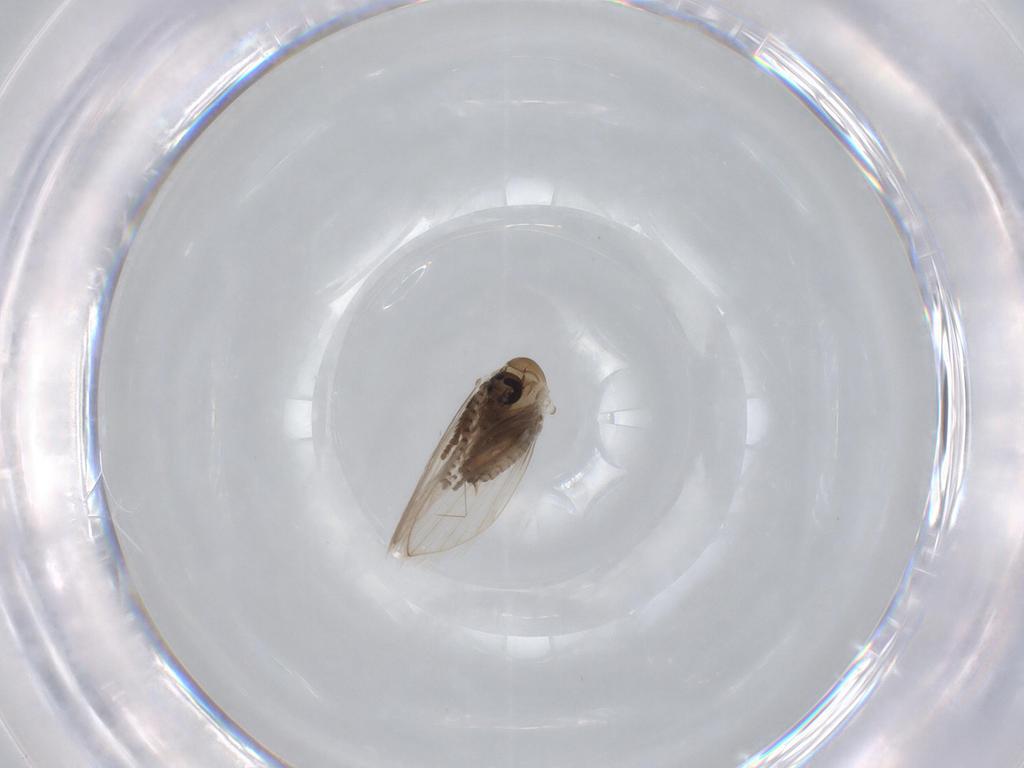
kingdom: Animalia
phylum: Arthropoda
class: Insecta
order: Diptera
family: Psychodidae
